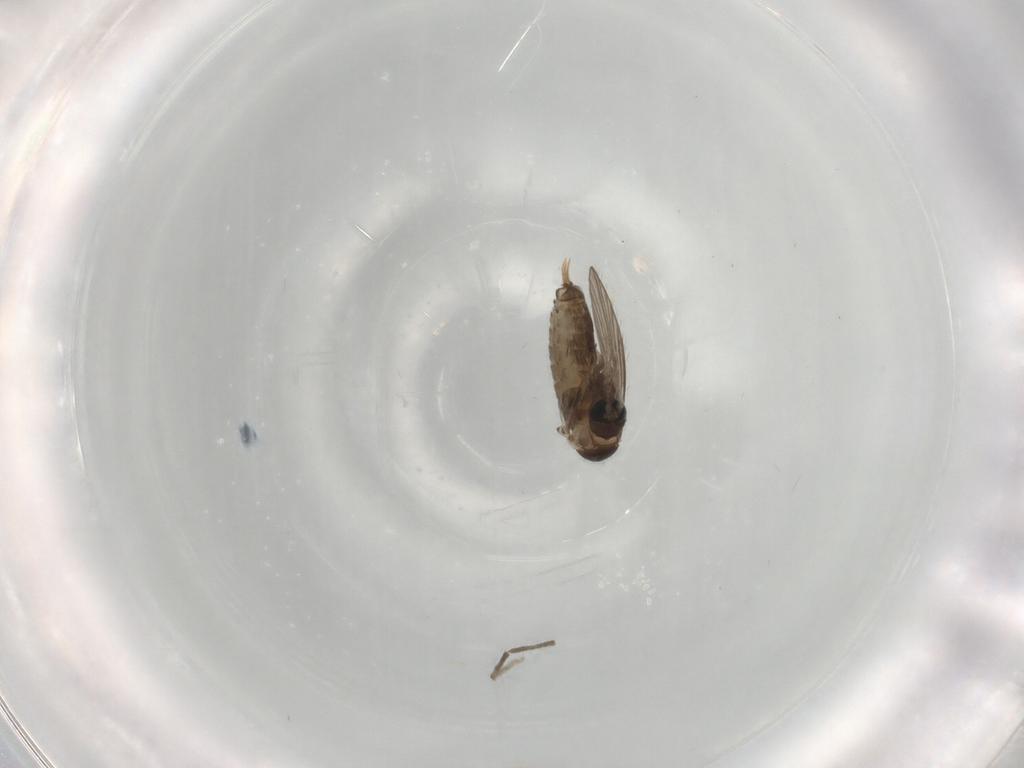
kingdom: Animalia
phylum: Arthropoda
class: Insecta
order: Diptera
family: Psychodidae
